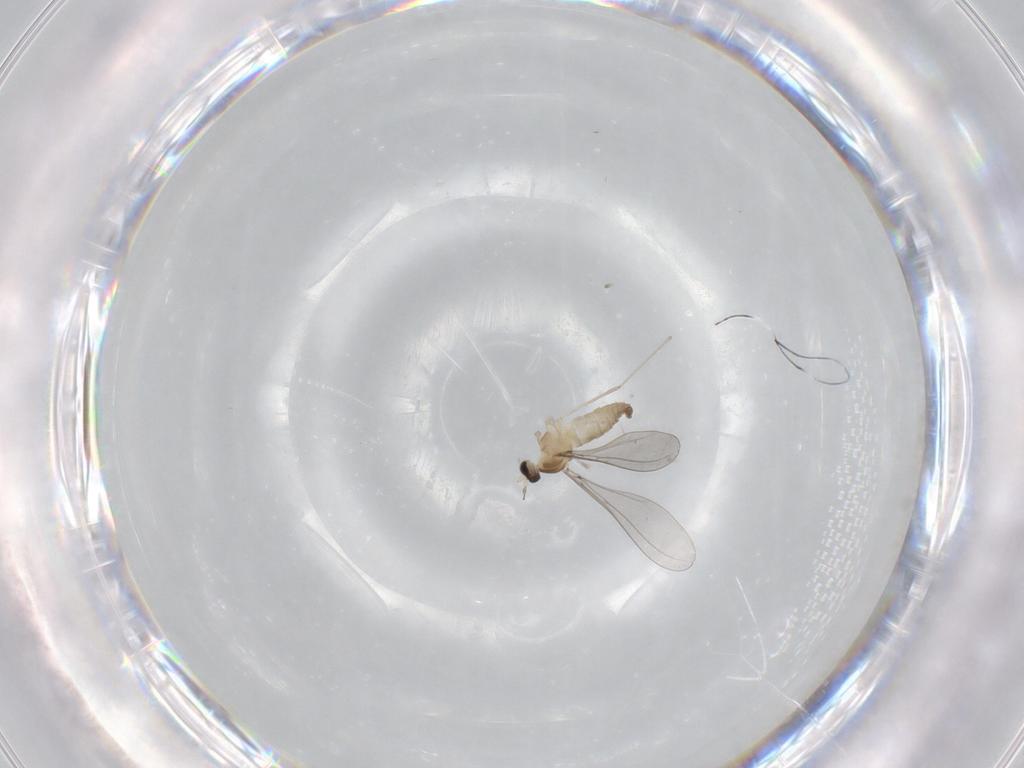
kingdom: Animalia
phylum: Arthropoda
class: Insecta
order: Diptera
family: Cecidomyiidae
